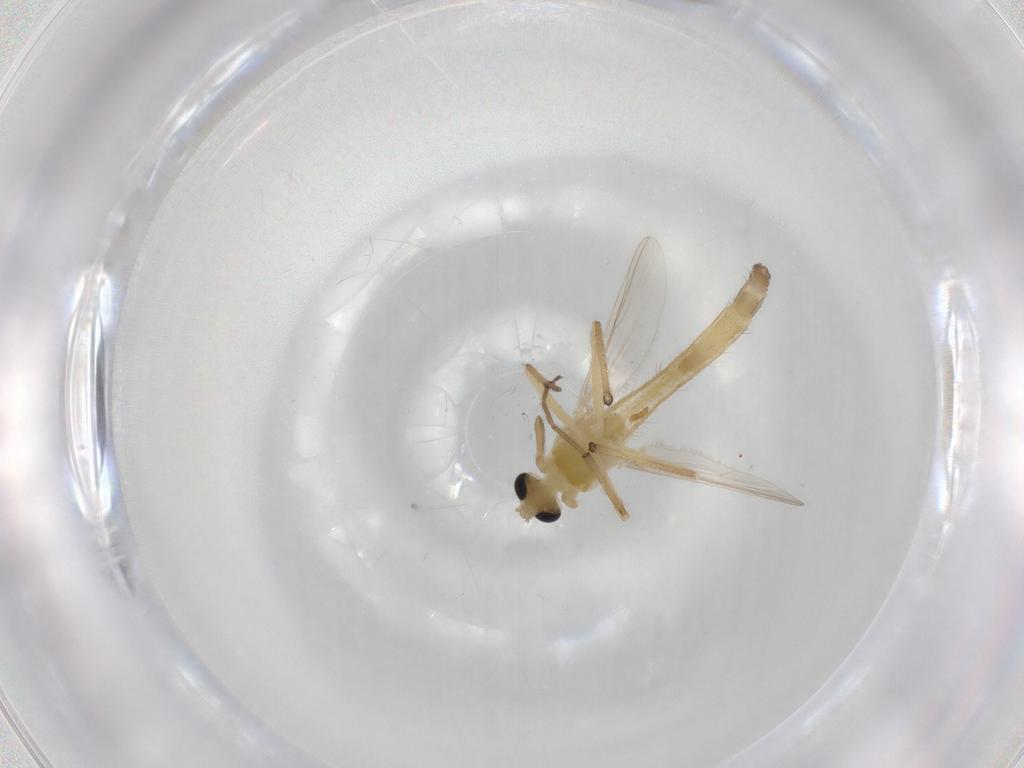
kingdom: Animalia
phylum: Arthropoda
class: Insecta
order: Diptera
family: Chironomidae
